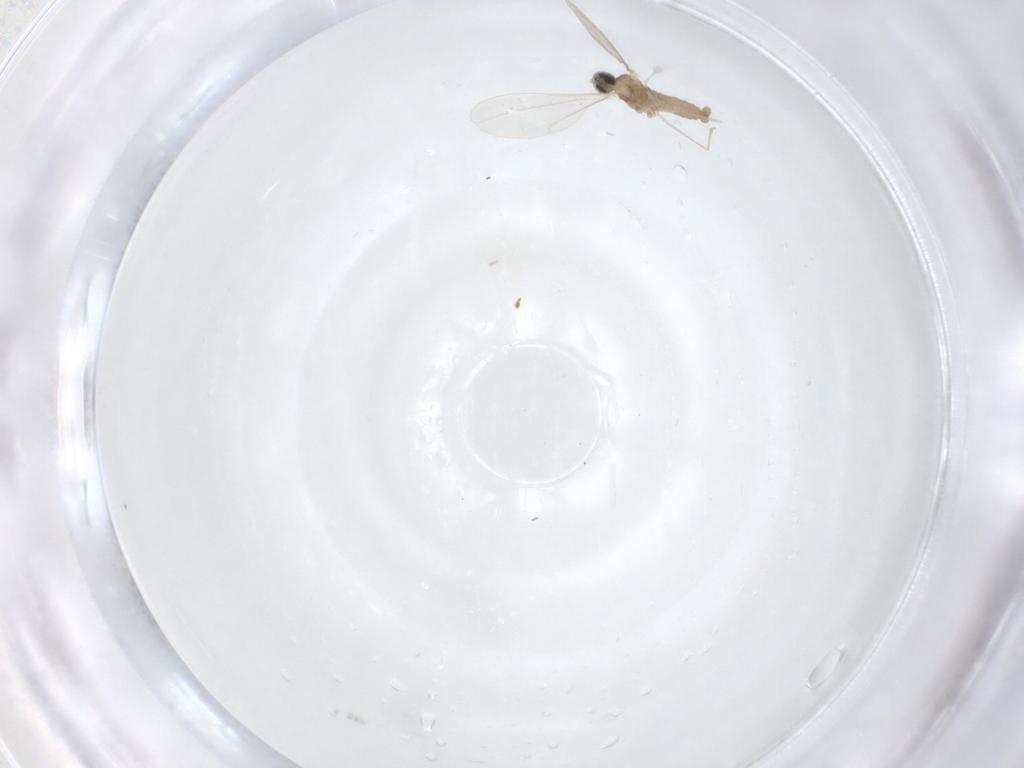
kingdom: Animalia
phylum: Arthropoda
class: Insecta
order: Diptera
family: Cecidomyiidae
